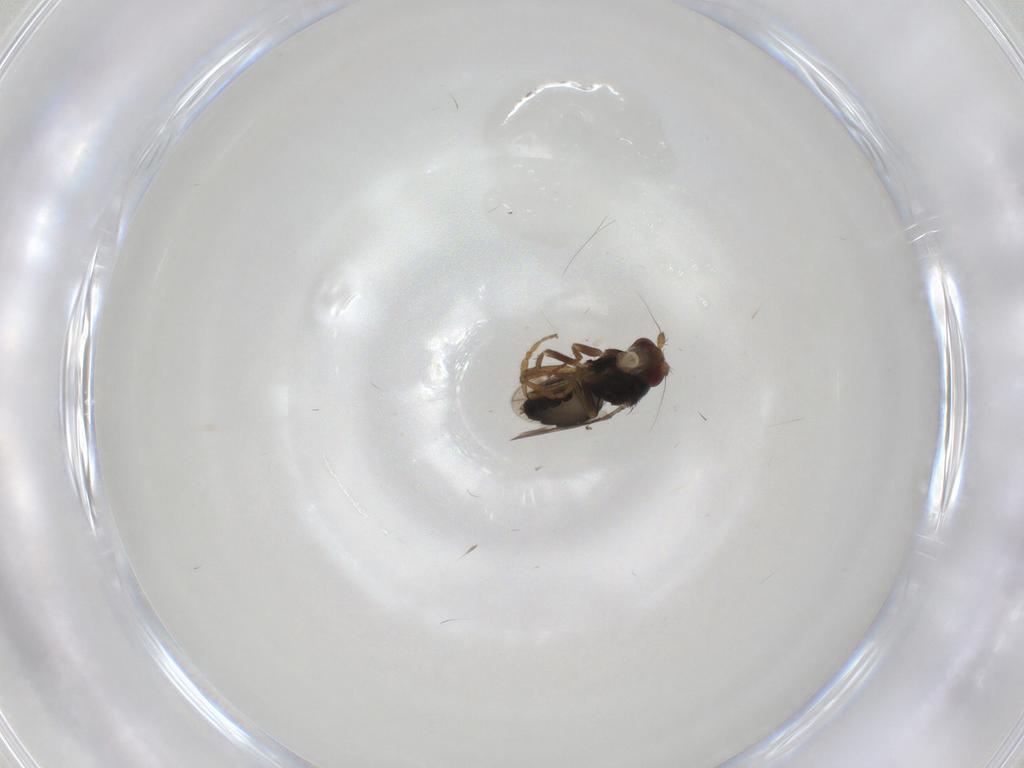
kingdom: Animalia
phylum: Arthropoda
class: Insecta
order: Diptera
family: Sphaeroceridae
